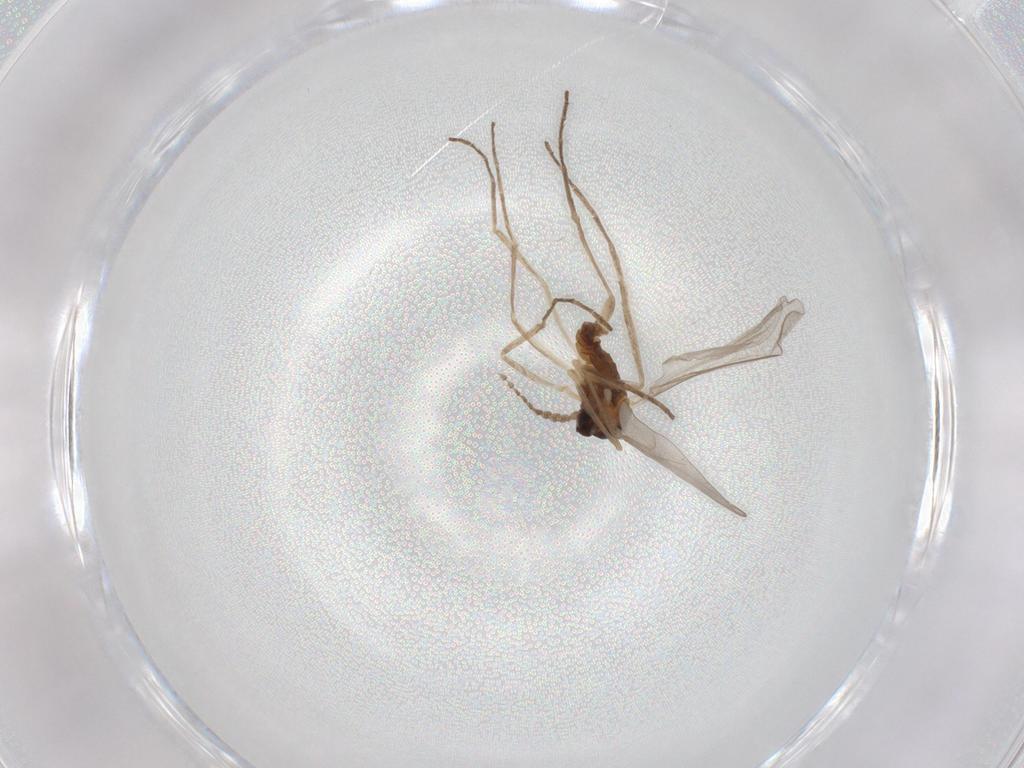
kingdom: Animalia
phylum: Arthropoda
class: Insecta
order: Diptera
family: Cecidomyiidae
